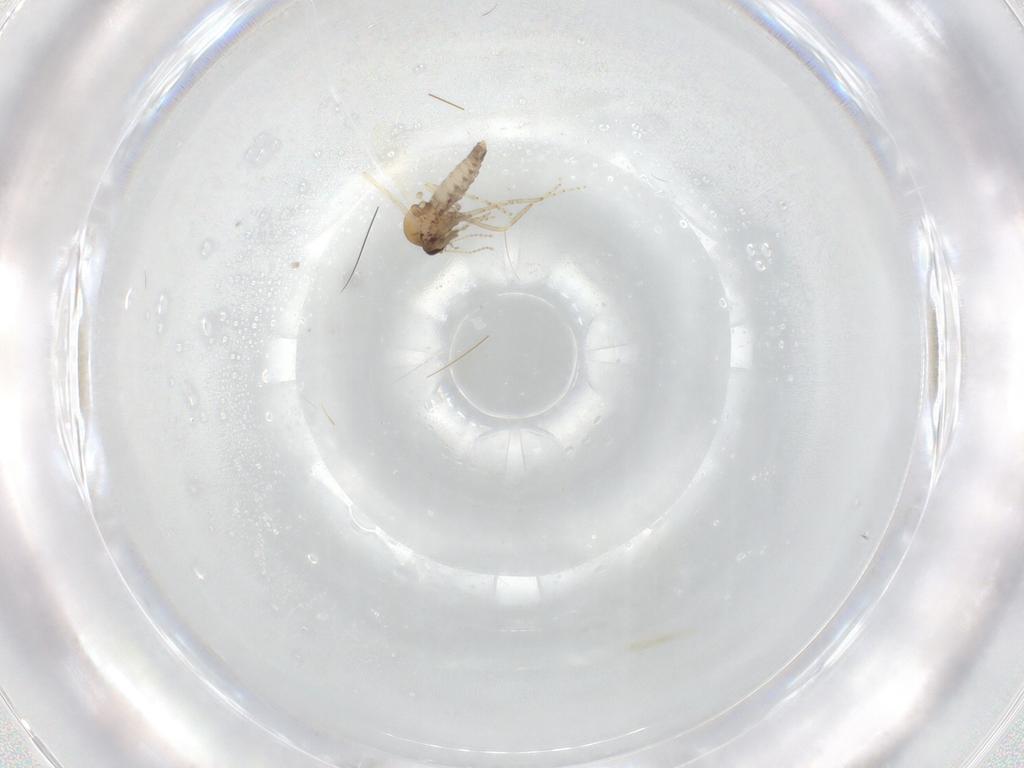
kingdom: Animalia
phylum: Arthropoda
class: Insecta
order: Diptera
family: Ceratopogonidae
